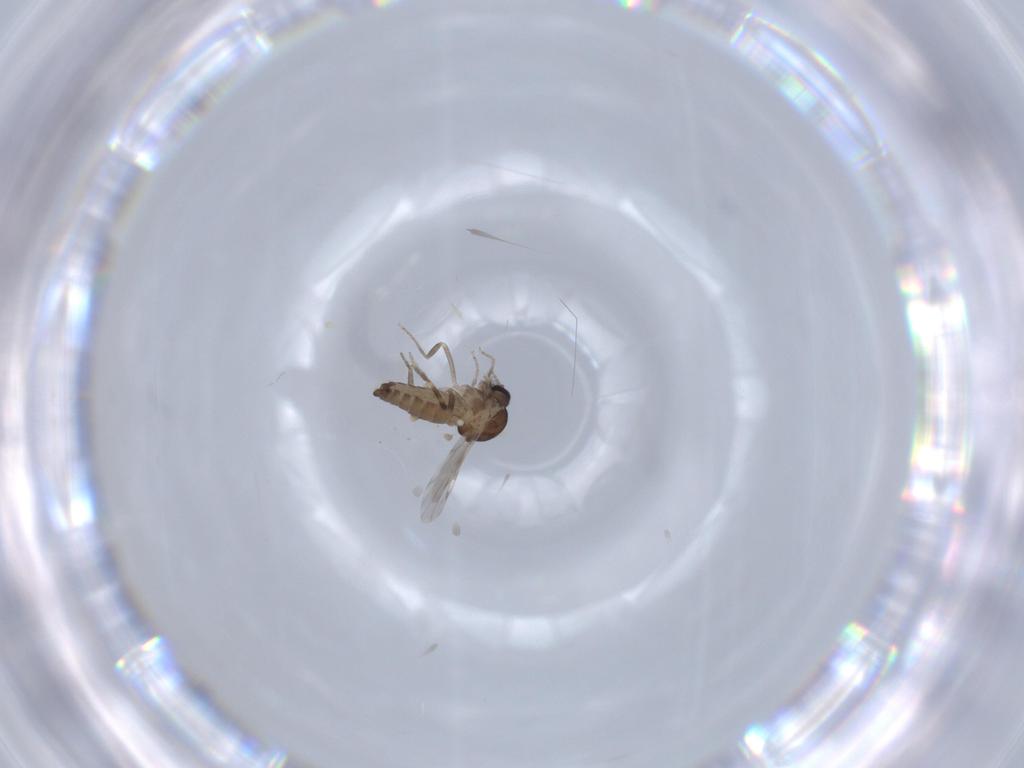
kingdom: Animalia
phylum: Arthropoda
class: Insecta
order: Diptera
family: Ceratopogonidae
